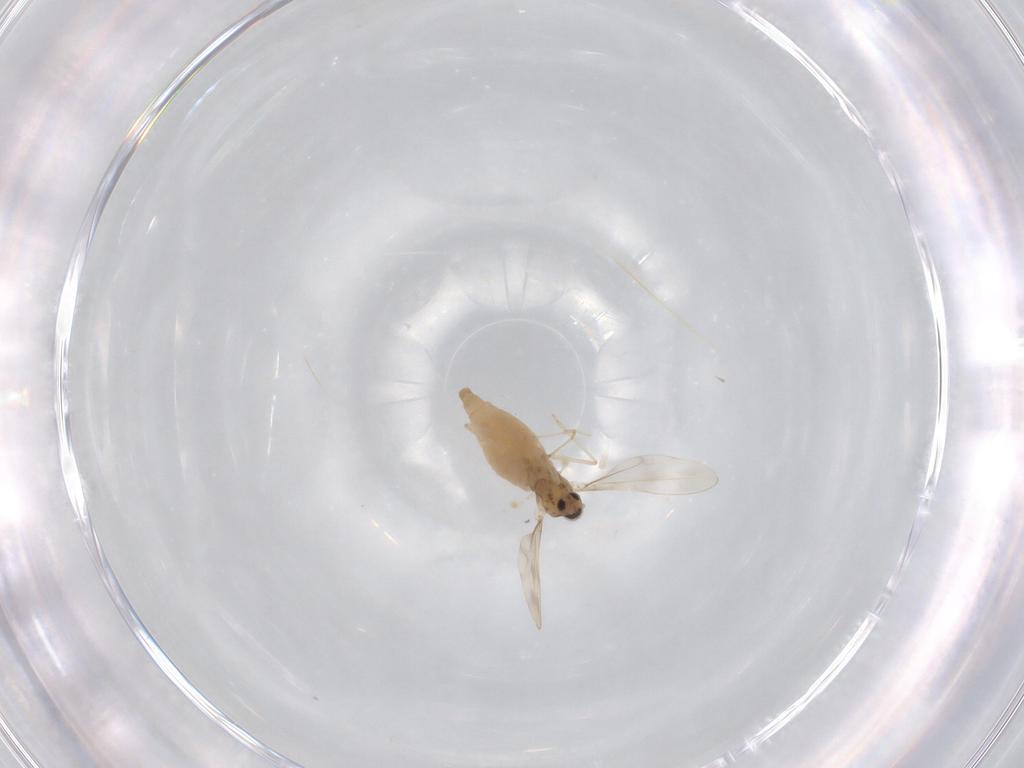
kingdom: Animalia
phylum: Arthropoda
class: Insecta
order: Diptera
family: Cecidomyiidae
